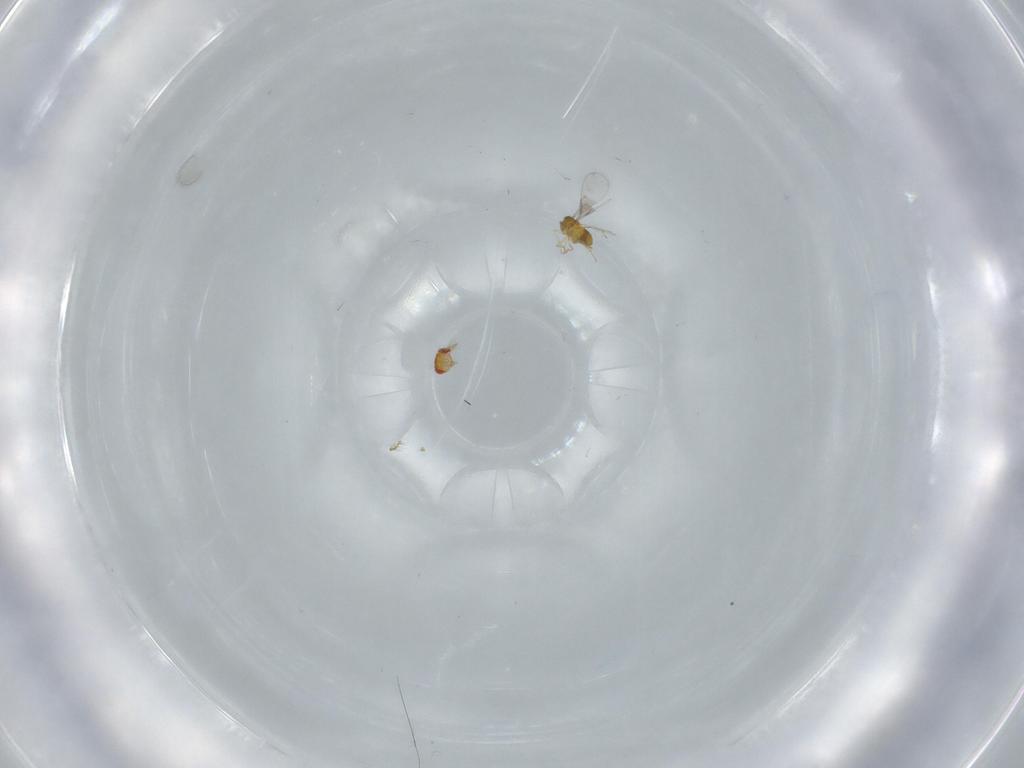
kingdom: Animalia
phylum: Arthropoda
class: Insecta
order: Hymenoptera
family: Trichogrammatidae
